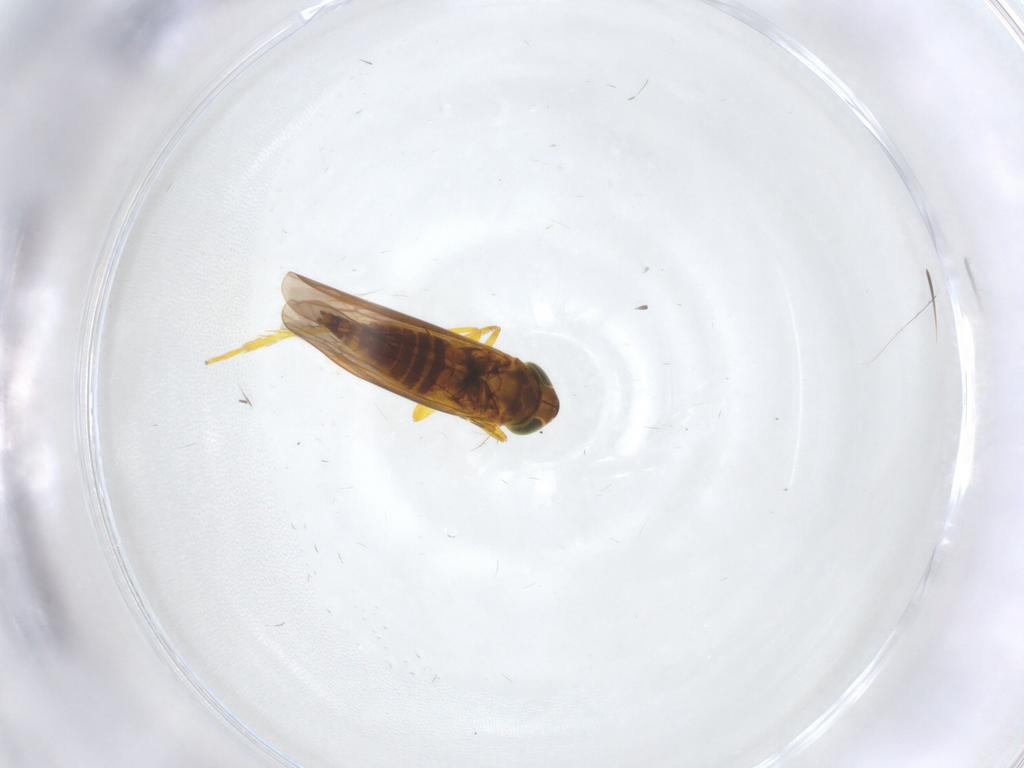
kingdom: Animalia
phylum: Arthropoda
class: Insecta
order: Hemiptera
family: Cicadellidae
